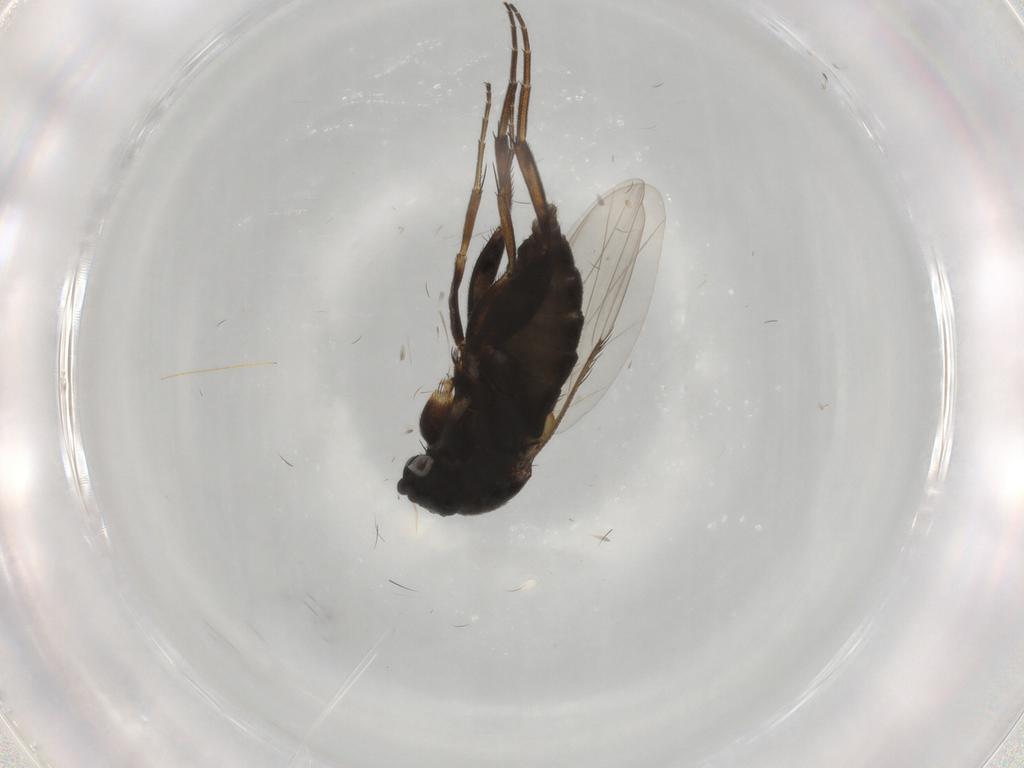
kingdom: Animalia
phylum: Arthropoda
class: Insecta
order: Diptera
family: Phoridae
